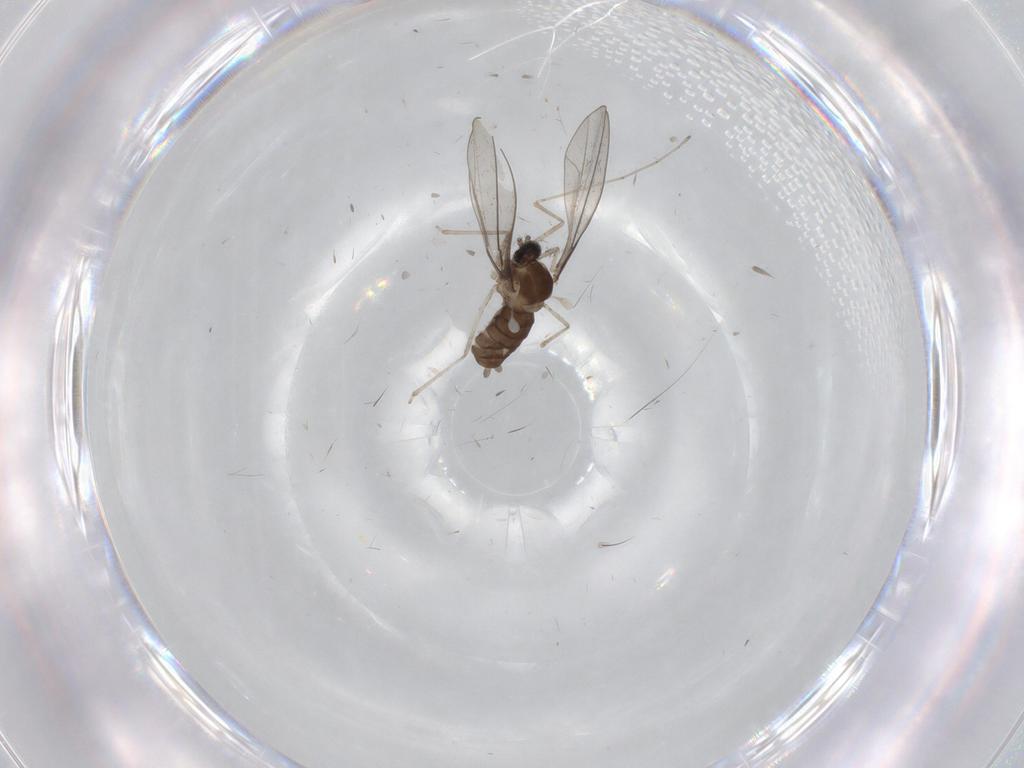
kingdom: Animalia
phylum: Arthropoda
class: Insecta
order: Diptera
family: Cecidomyiidae
